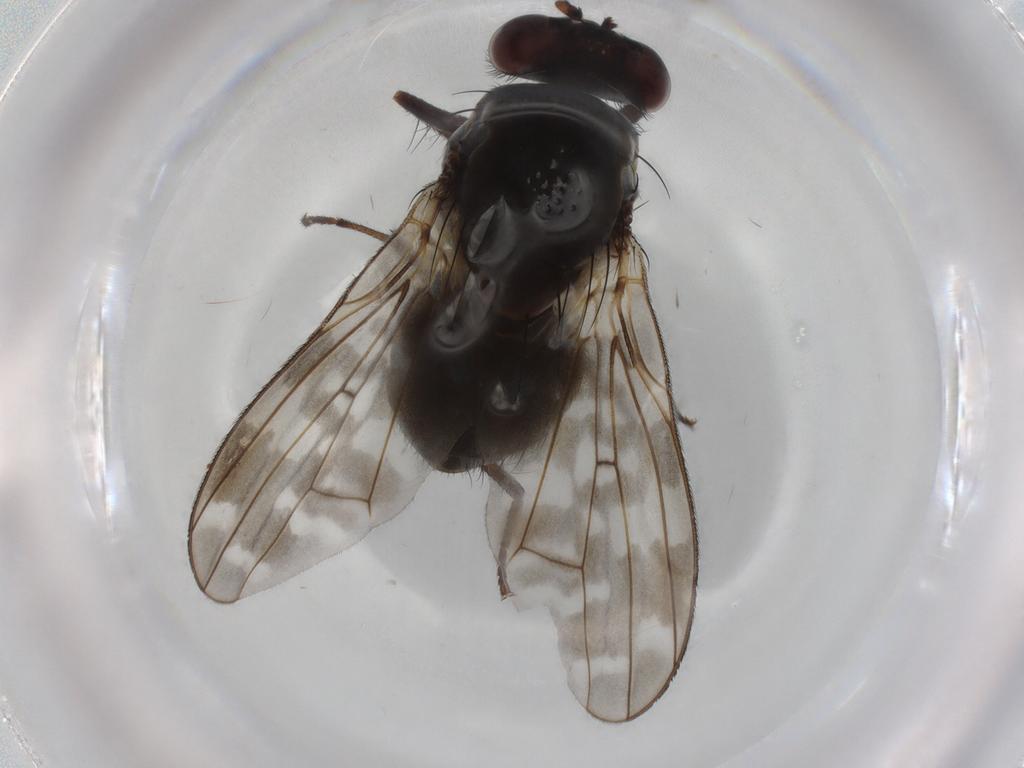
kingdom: Animalia
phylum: Arthropoda
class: Insecta
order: Diptera
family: Lauxaniidae
